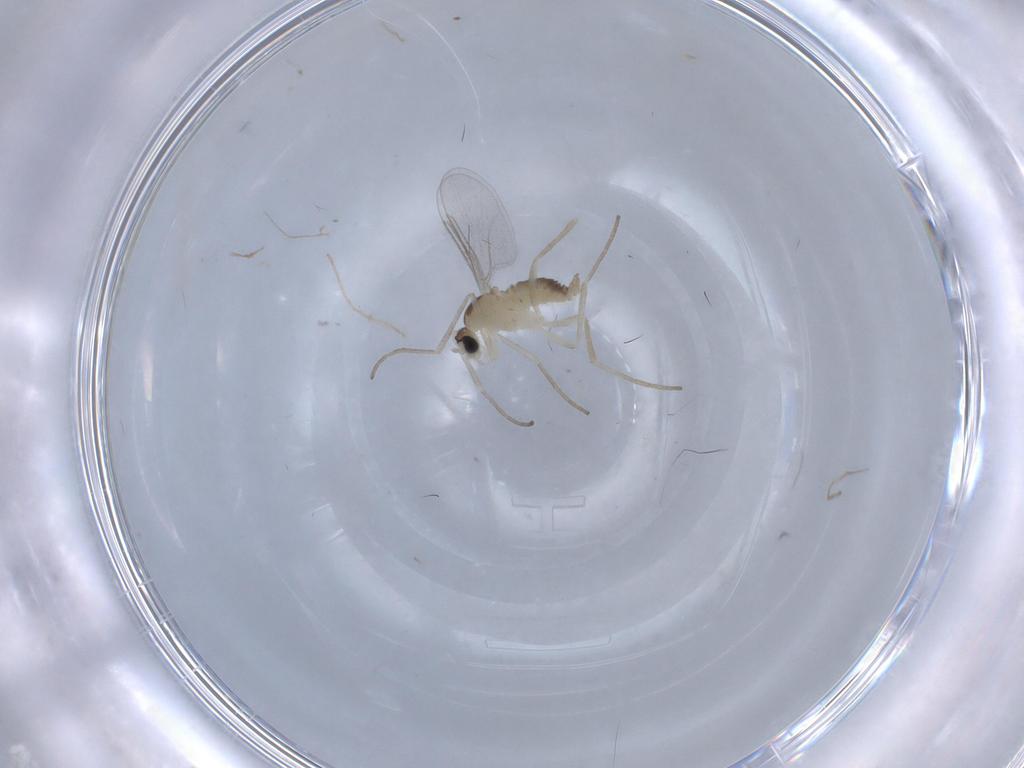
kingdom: Animalia
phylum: Arthropoda
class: Insecta
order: Diptera
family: Cecidomyiidae
